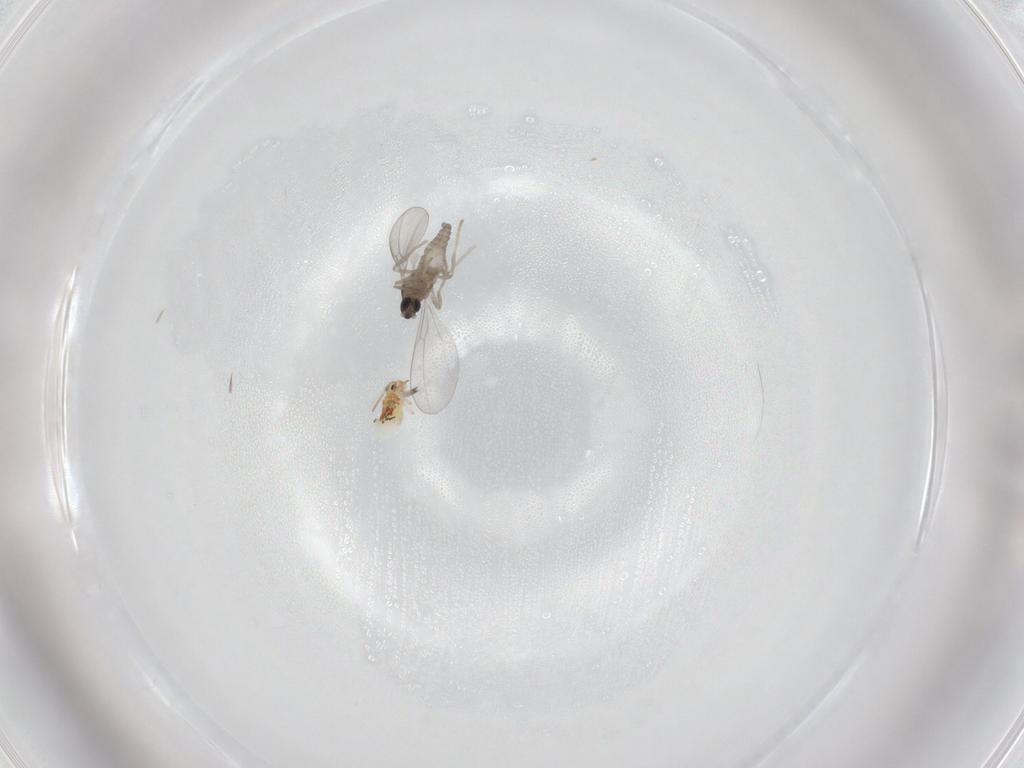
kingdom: Animalia
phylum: Arthropoda
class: Insecta
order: Diptera
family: Cecidomyiidae
